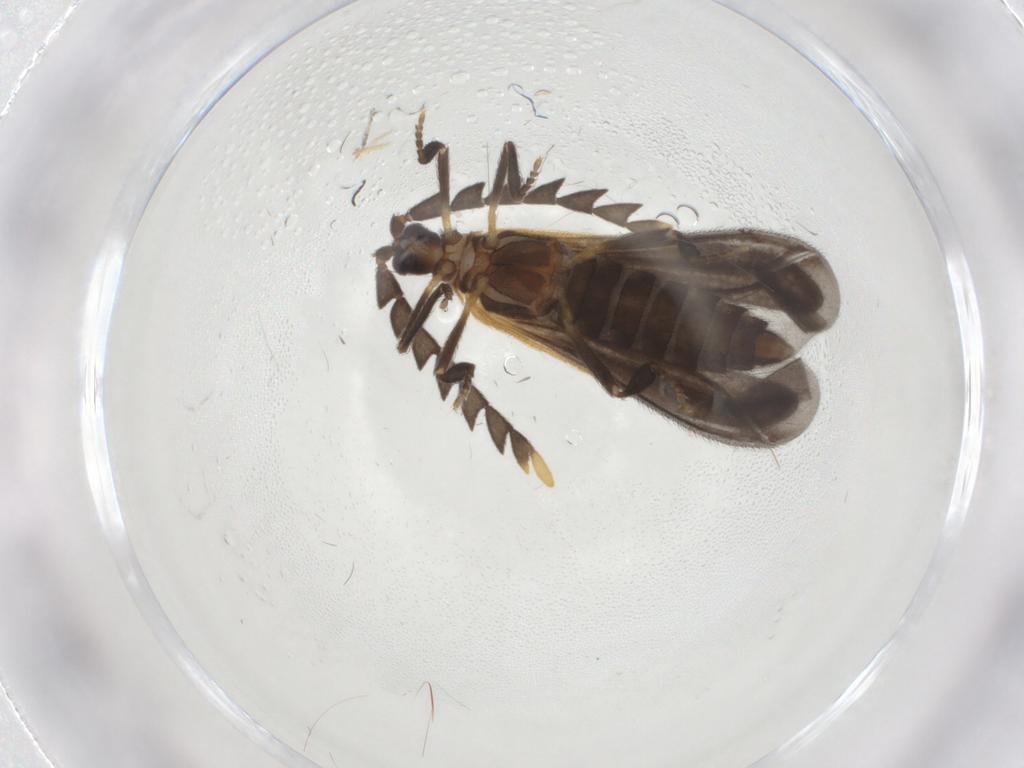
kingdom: Animalia
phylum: Arthropoda
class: Insecta
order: Coleoptera
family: Lycidae
